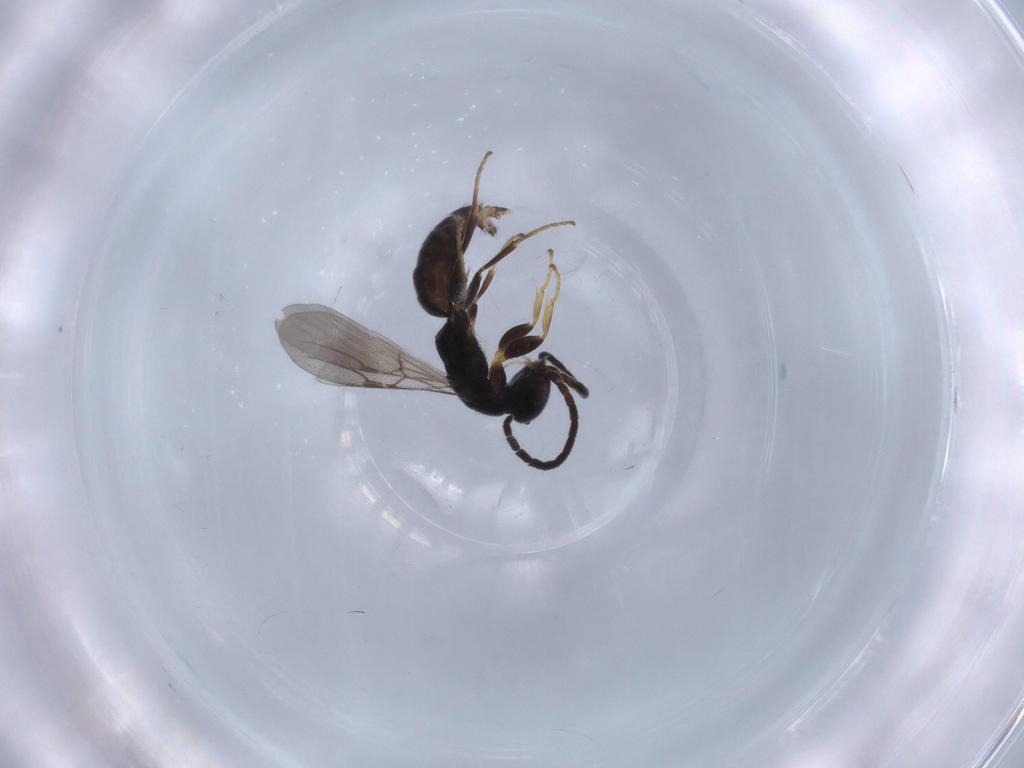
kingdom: Animalia
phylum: Arthropoda
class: Insecta
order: Hymenoptera
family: Bethylidae
